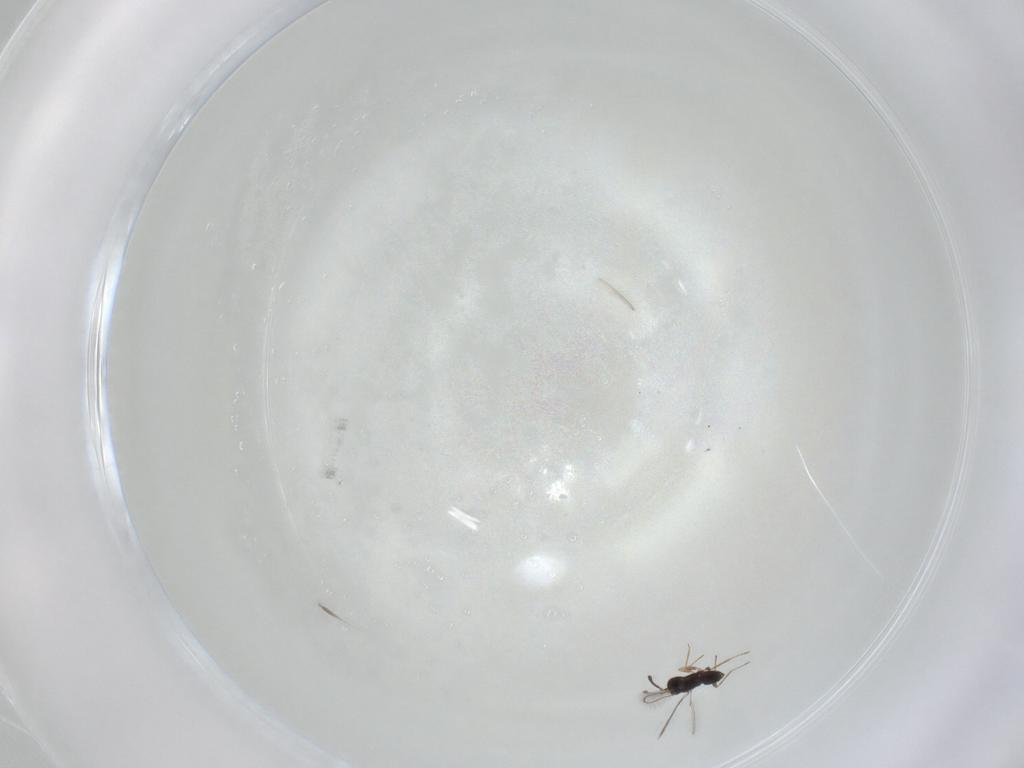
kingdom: Animalia
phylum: Arthropoda
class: Insecta
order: Hymenoptera
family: Mymaridae
